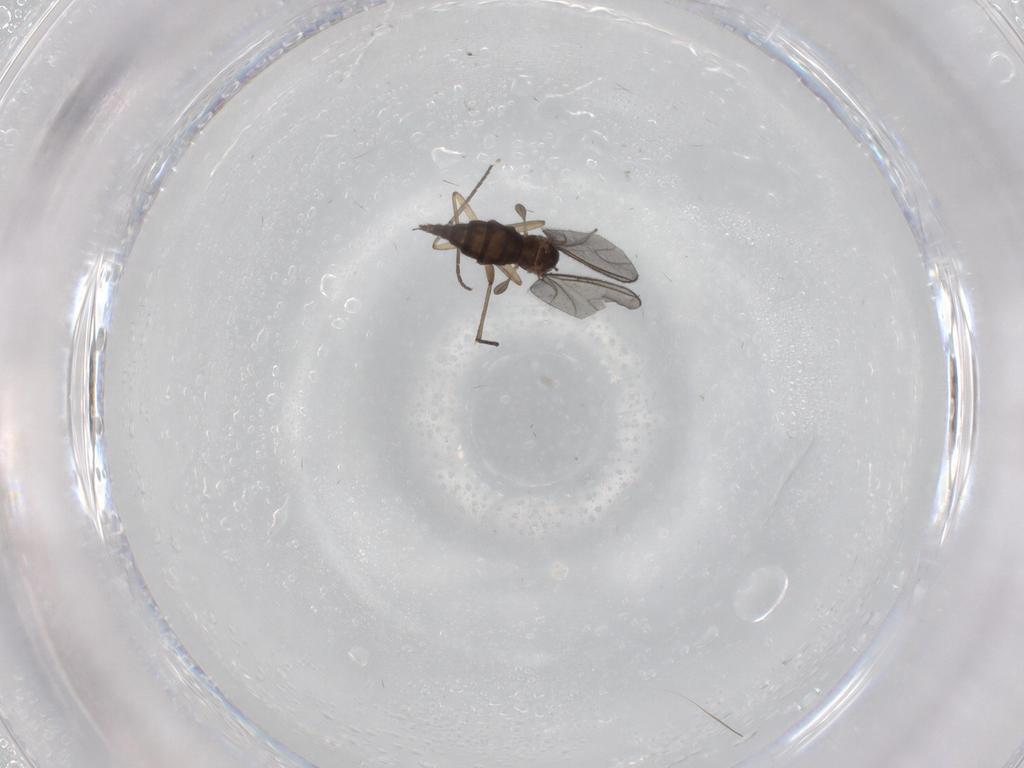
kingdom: Animalia
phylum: Arthropoda
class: Insecta
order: Diptera
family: Sciaridae
